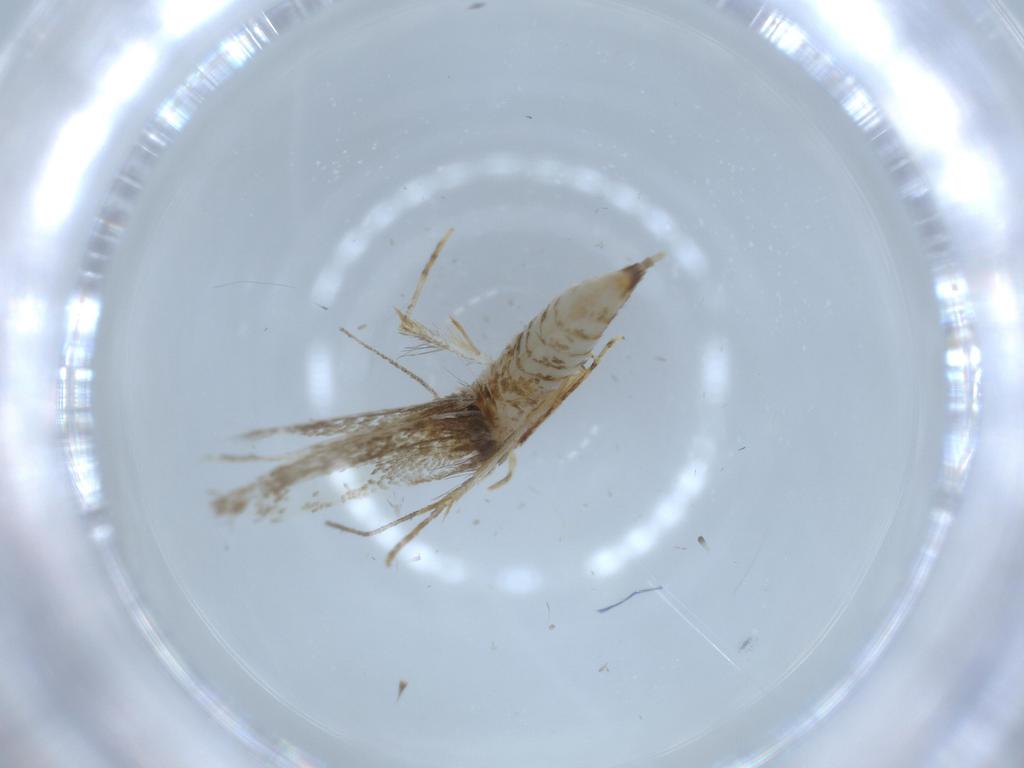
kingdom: Animalia
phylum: Arthropoda
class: Insecta
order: Lepidoptera
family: Tineidae
